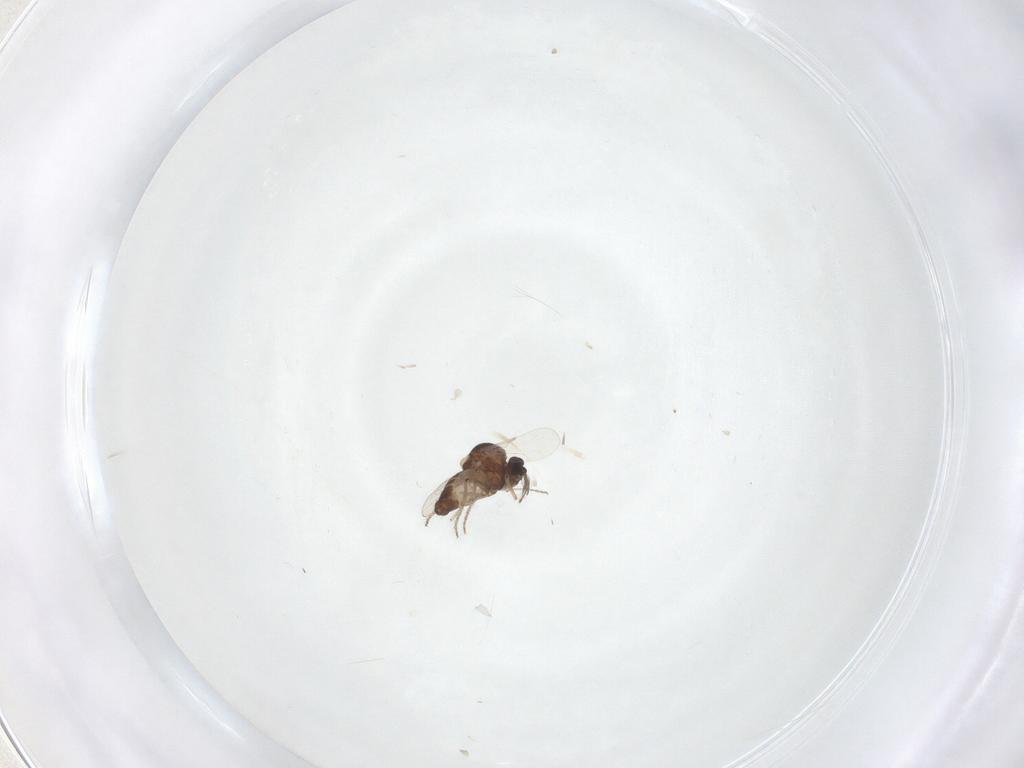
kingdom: Animalia
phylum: Arthropoda
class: Insecta
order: Diptera
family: Ceratopogonidae
